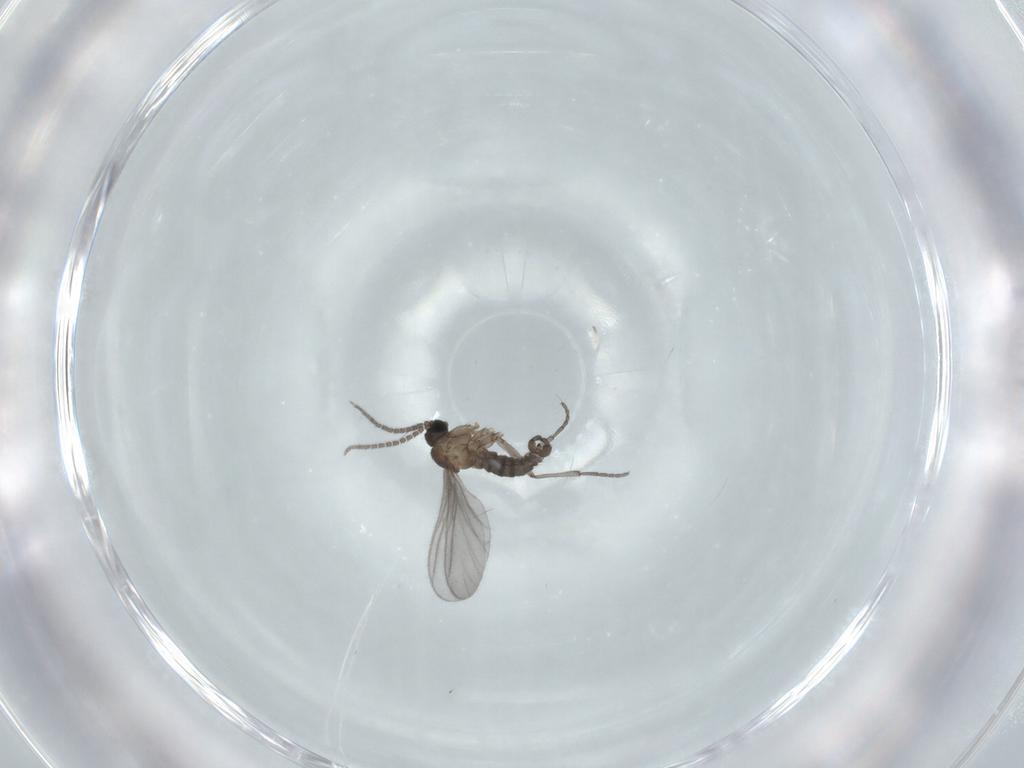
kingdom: Animalia
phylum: Arthropoda
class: Insecta
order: Diptera
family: Sciaridae
